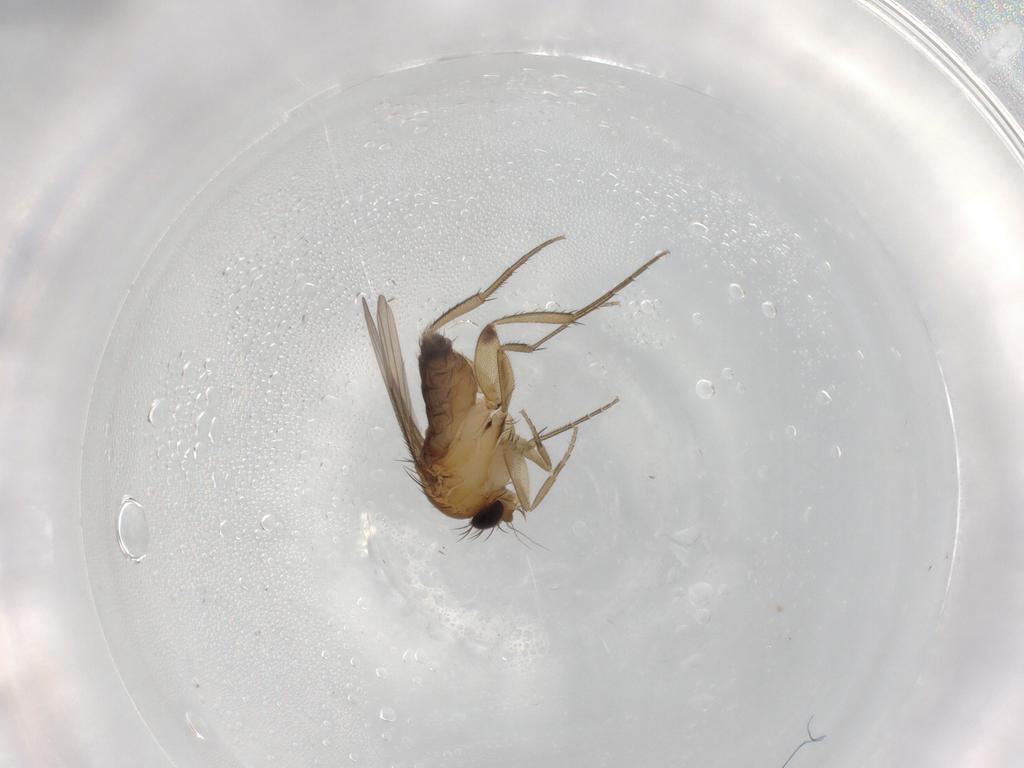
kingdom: Animalia
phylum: Arthropoda
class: Insecta
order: Diptera
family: Phoridae
